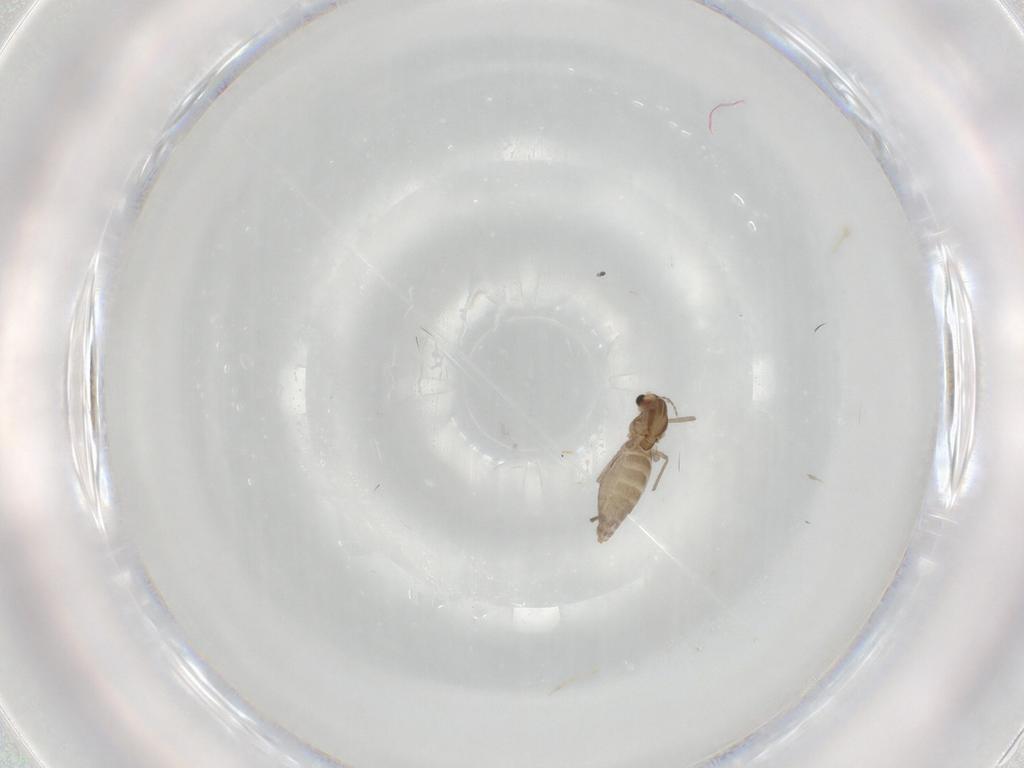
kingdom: Animalia
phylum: Arthropoda
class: Insecta
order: Diptera
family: Chironomidae
